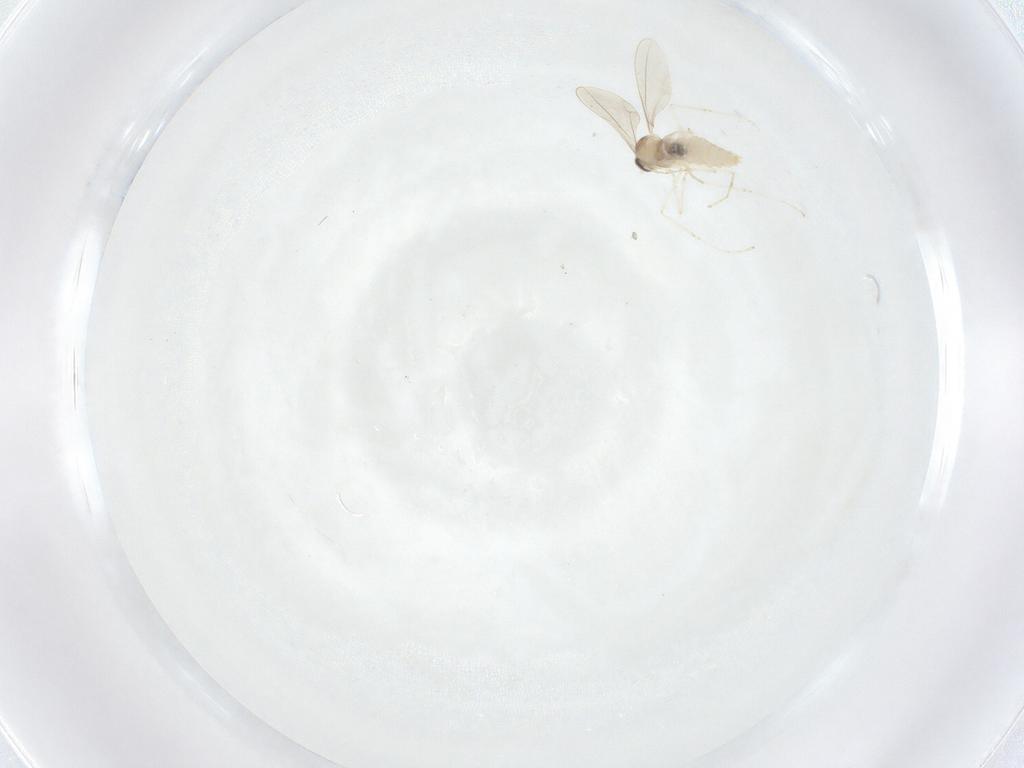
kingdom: Animalia
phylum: Arthropoda
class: Insecta
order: Diptera
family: Cecidomyiidae
